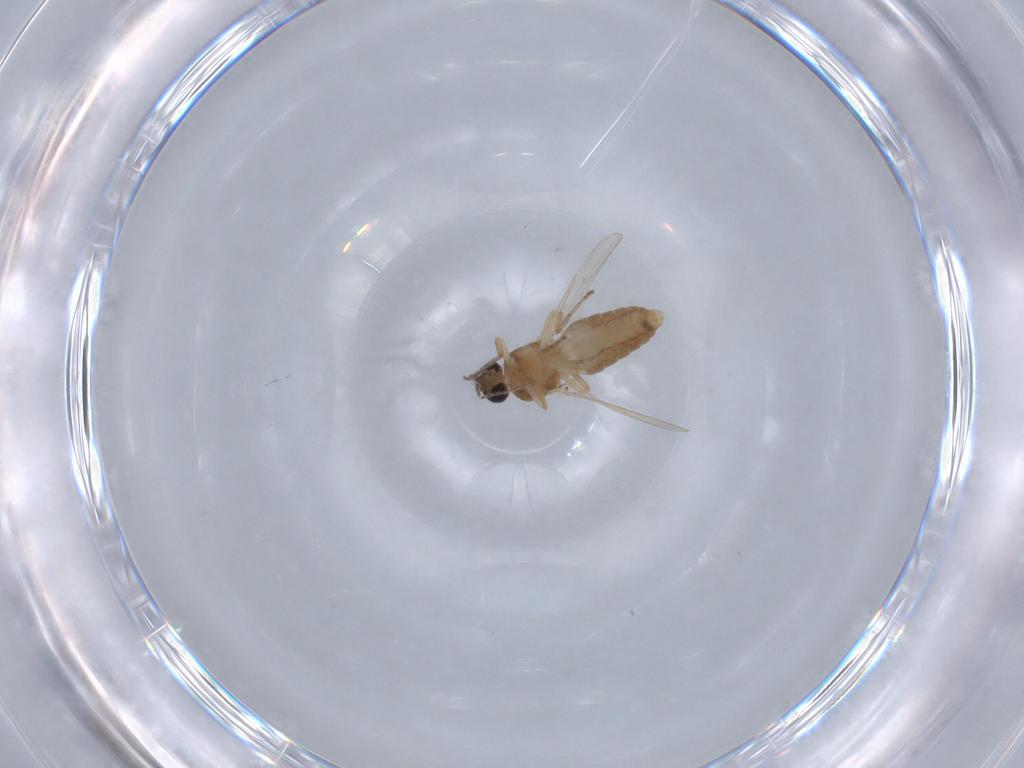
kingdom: Animalia
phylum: Arthropoda
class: Insecta
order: Diptera
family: Ceratopogonidae
